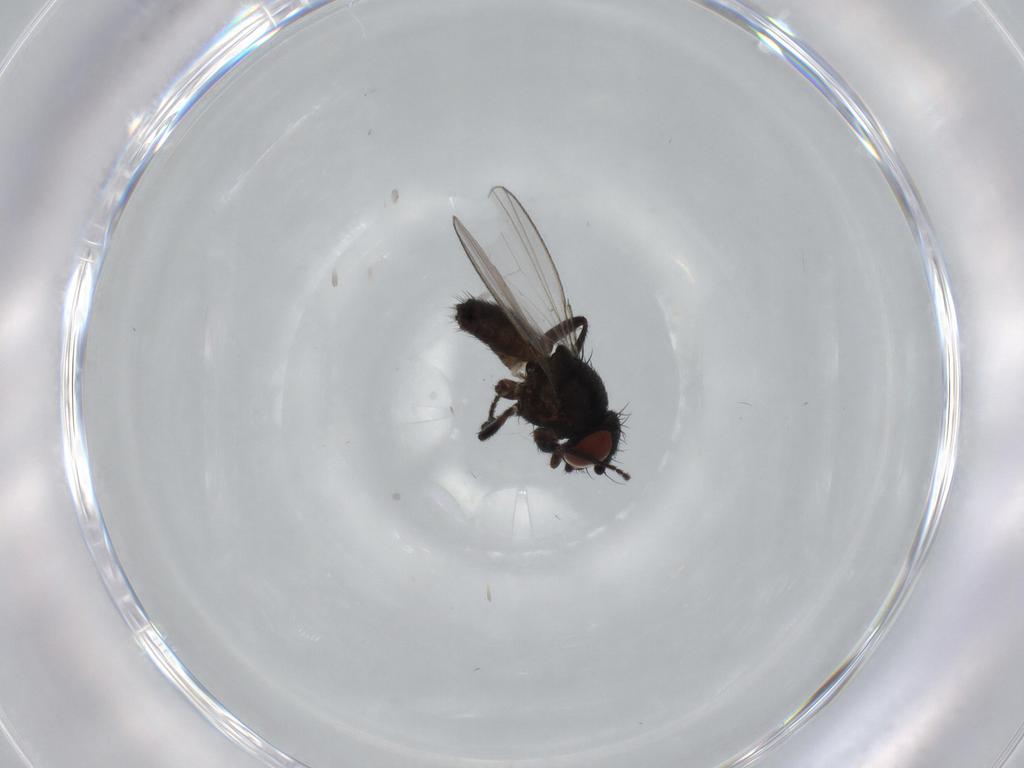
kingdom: Animalia
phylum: Arthropoda
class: Insecta
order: Diptera
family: Milichiidae
